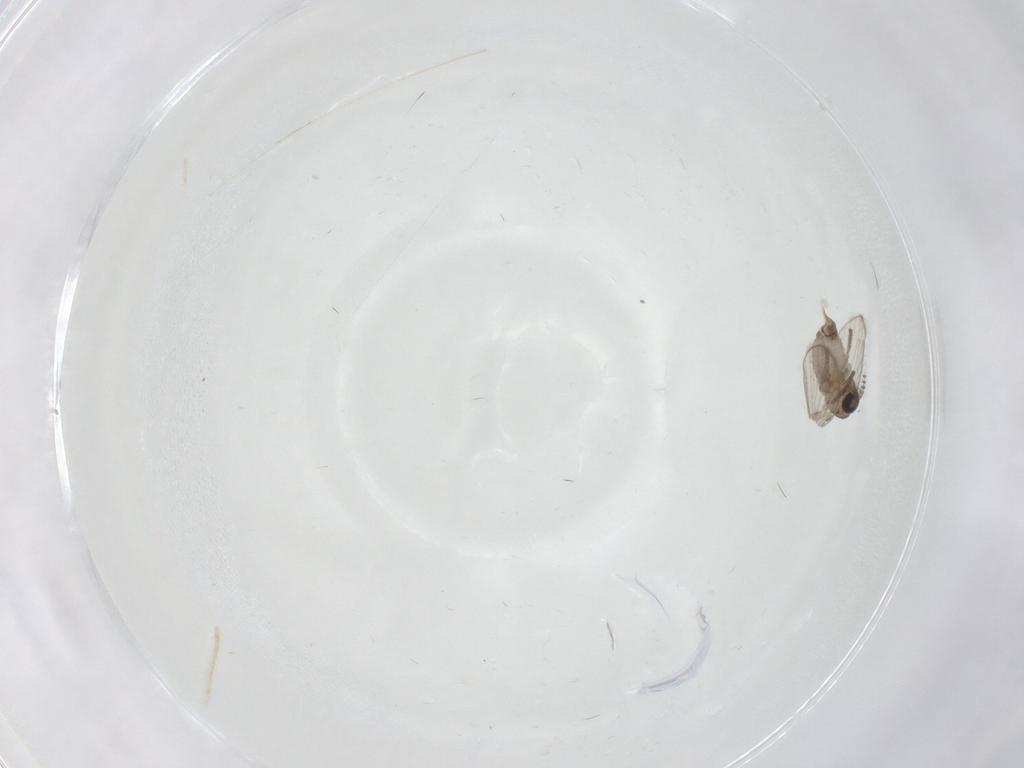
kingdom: Animalia
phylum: Arthropoda
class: Insecta
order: Diptera
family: Psychodidae
